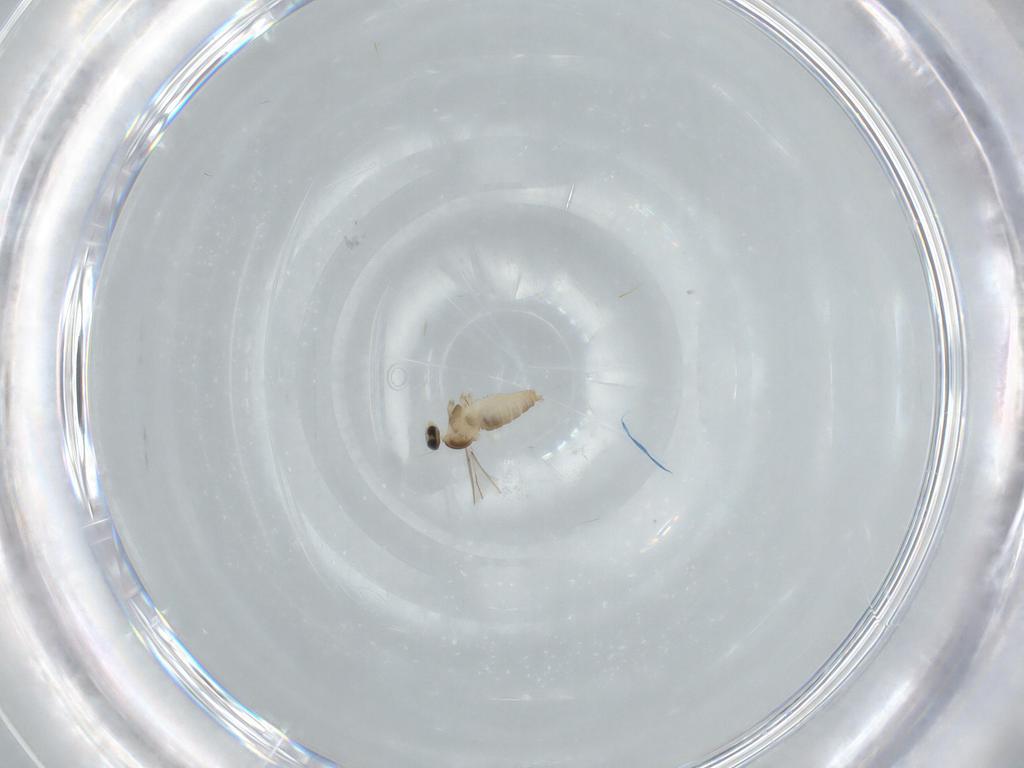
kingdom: Animalia
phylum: Arthropoda
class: Insecta
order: Diptera
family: Cecidomyiidae
